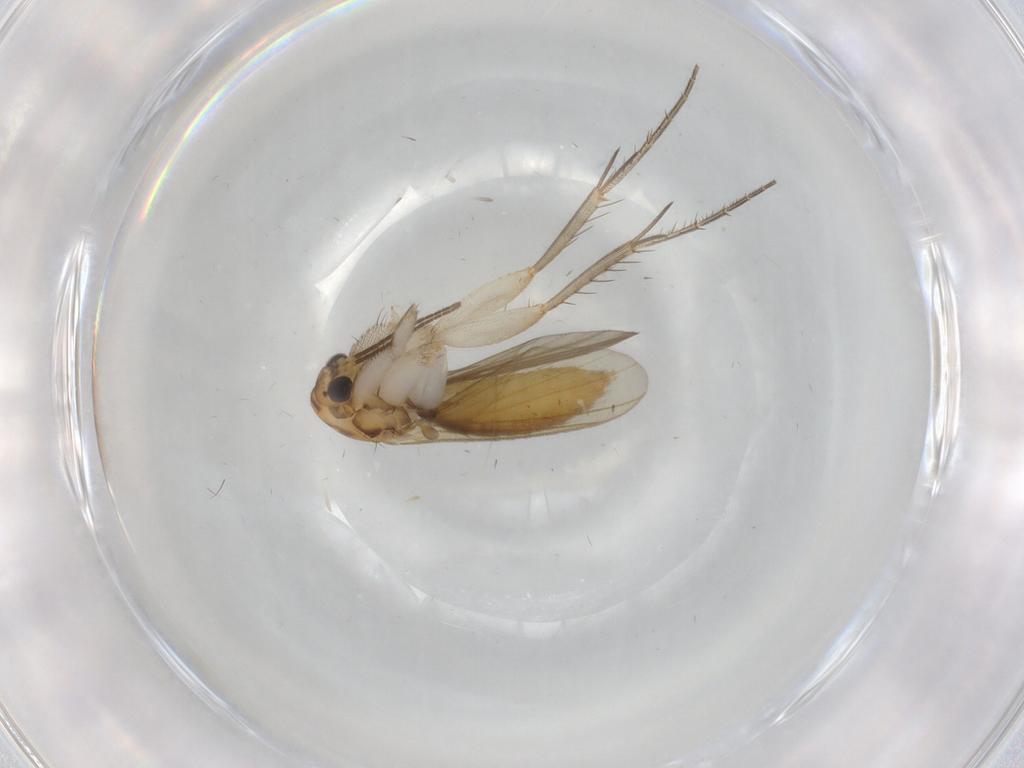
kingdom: Animalia
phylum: Arthropoda
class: Insecta
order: Diptera
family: Mycetophilidae
